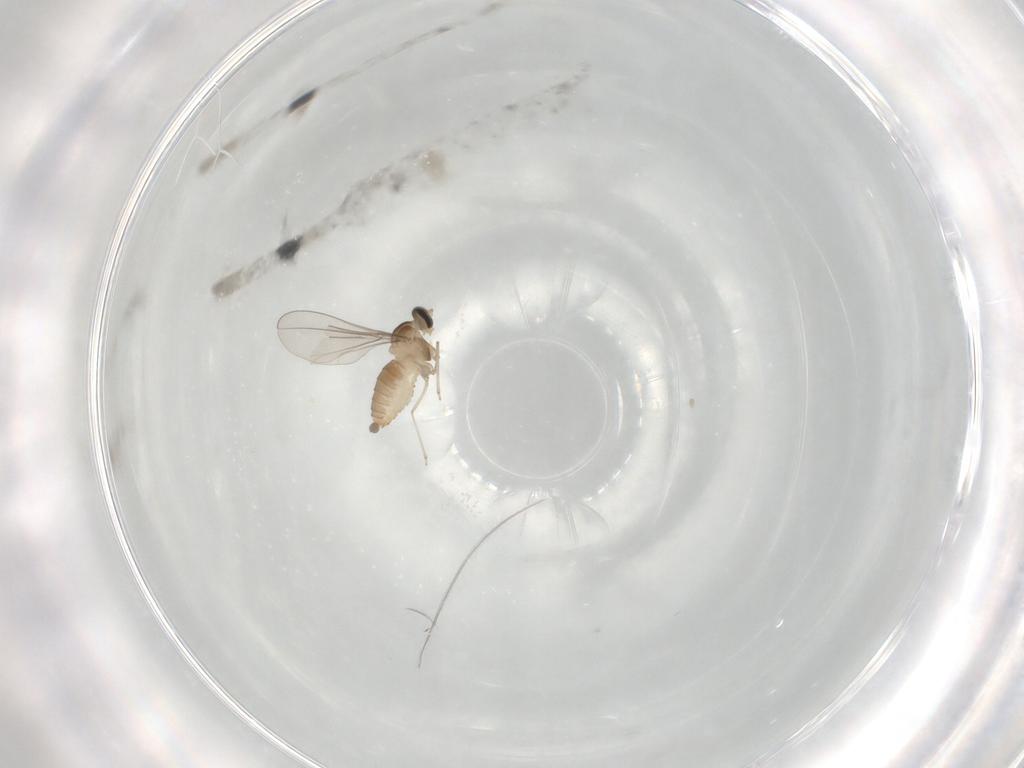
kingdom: Animalia
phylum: Arthropoda
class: Insecta
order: Diptera
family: Cecidomyiidae
